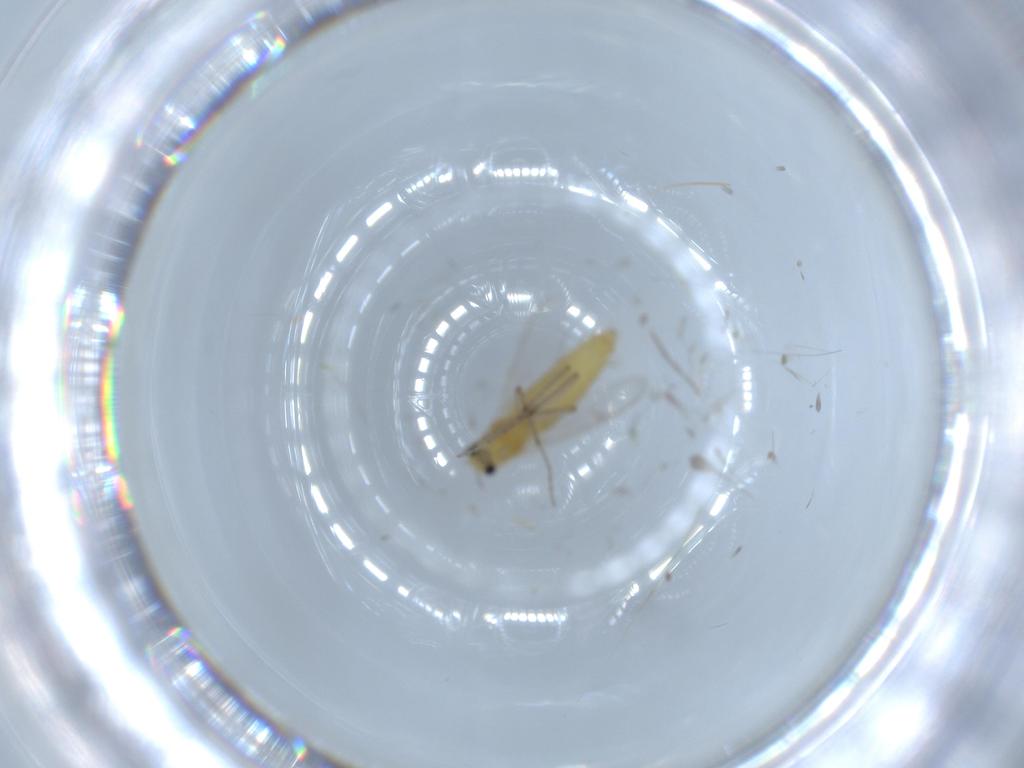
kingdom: Animalia
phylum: Arthropoda
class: Insecta
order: Diptera
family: Chironomidae
